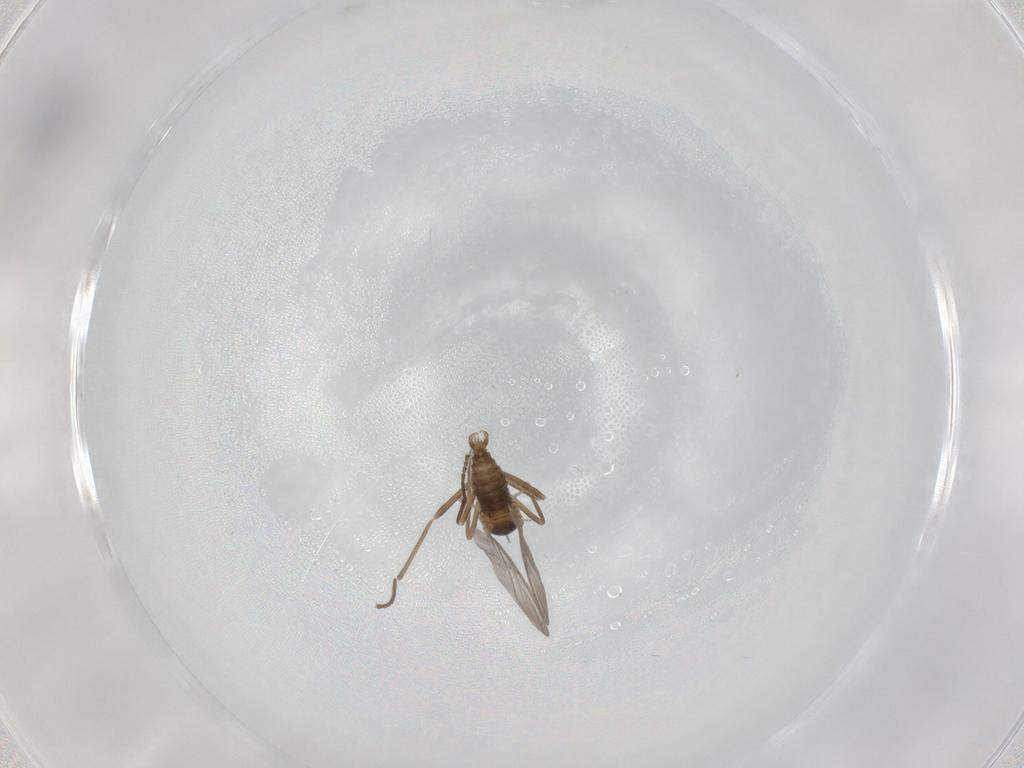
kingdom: Animalia
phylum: Arthropoda
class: Insecta
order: Diptera
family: Cecidomyiidae
